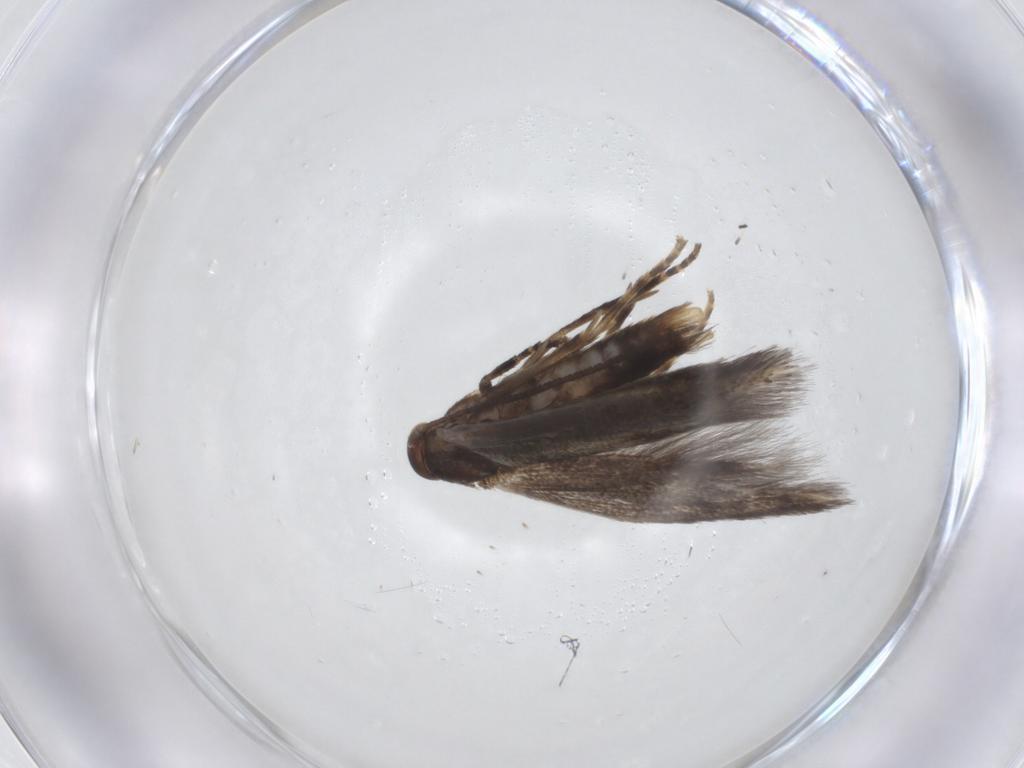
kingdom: Animalia
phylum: Arthropoda
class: Insecta
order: Lepidoptera
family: Elachistidae
